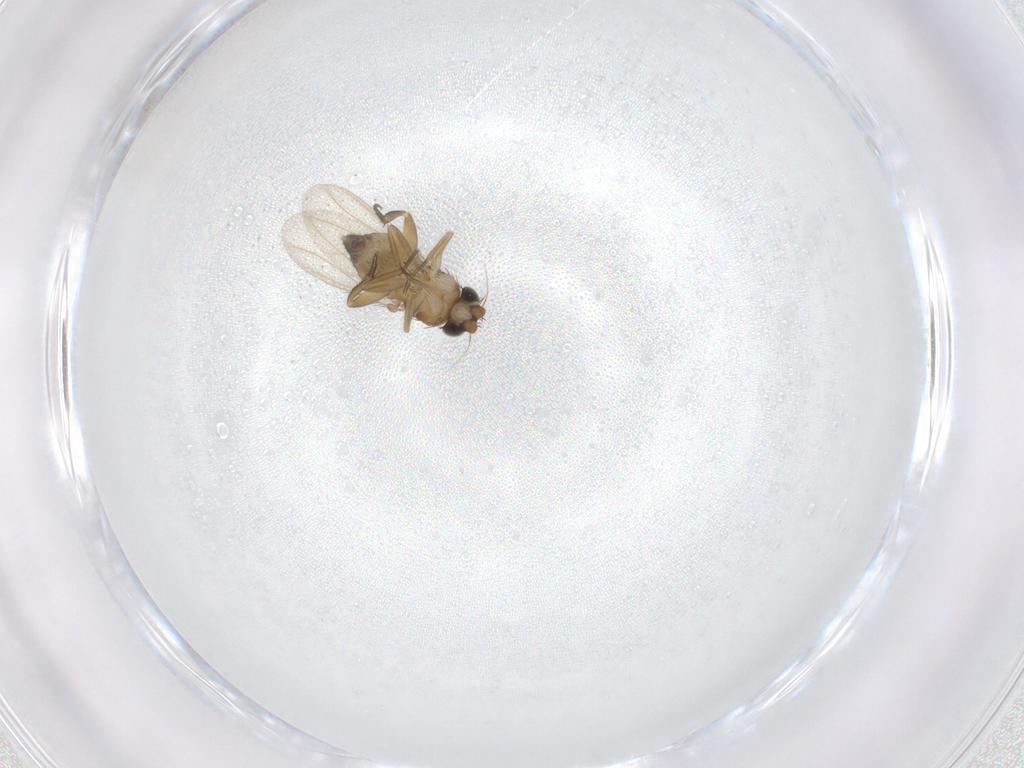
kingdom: Animalia
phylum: Arthropoda
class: Insecta
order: Diptera
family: Phoridae
